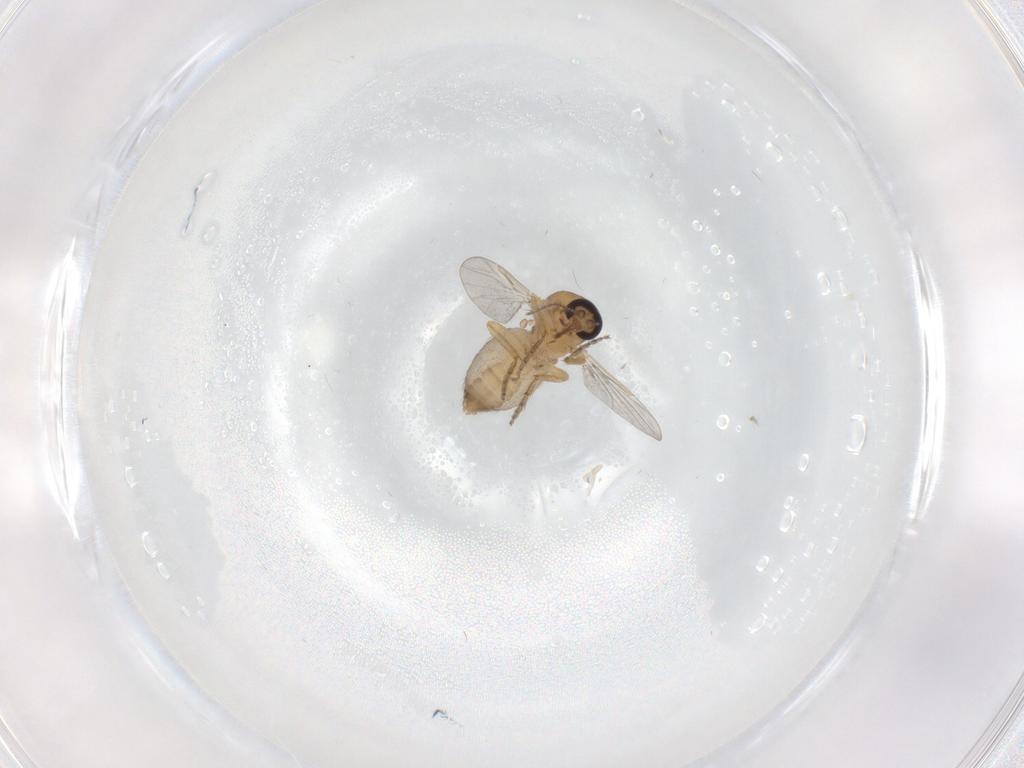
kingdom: Animalia
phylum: Arthropoda
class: Insecta
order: Diptera
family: Ceratopogonidae
